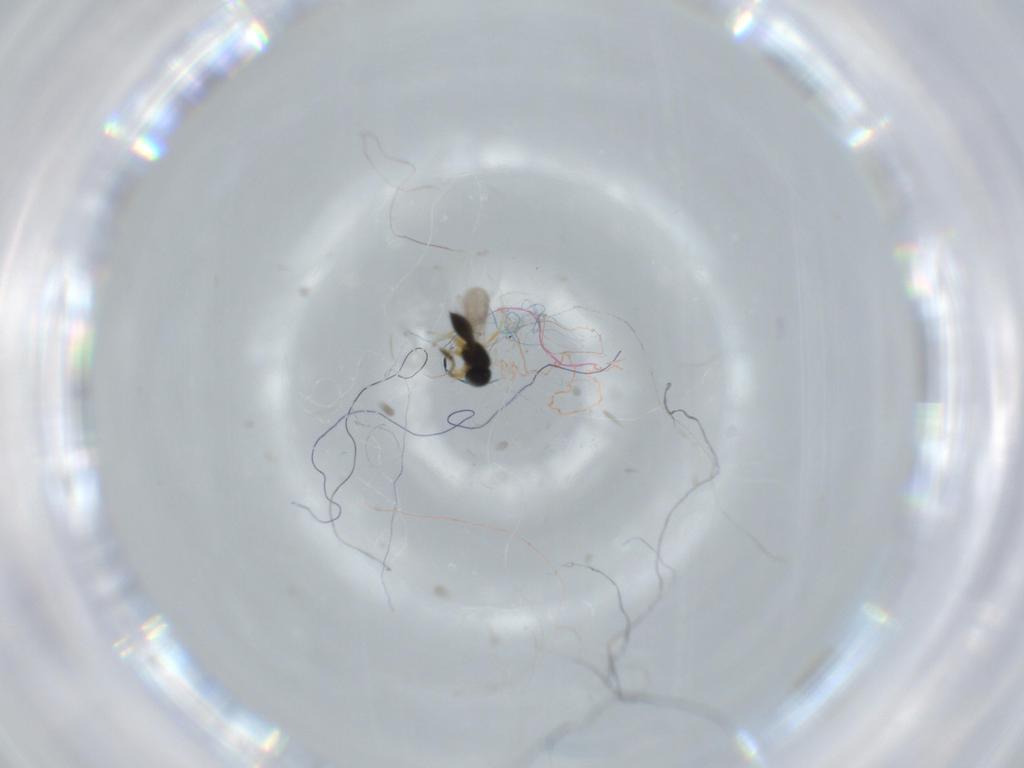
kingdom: Animalia
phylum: Arthropoda
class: Insecta
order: Hymenoptera
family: Scelionidae
